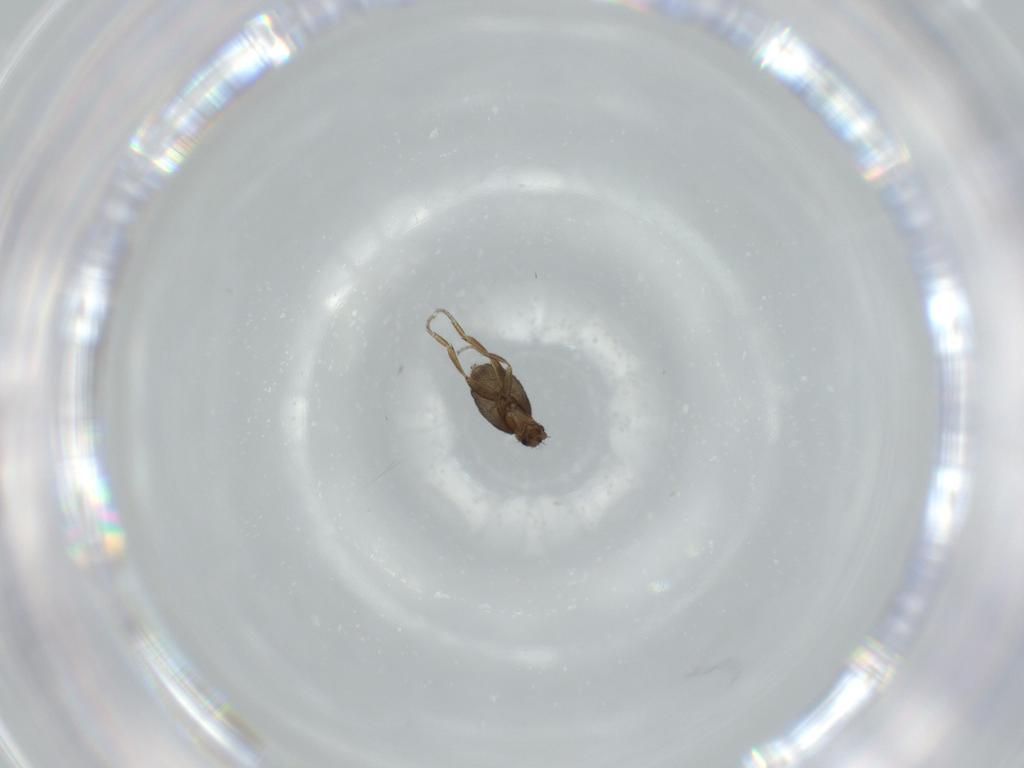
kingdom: Animalia
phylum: Arthropoda
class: Insecta
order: Diptera
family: Phoridae
